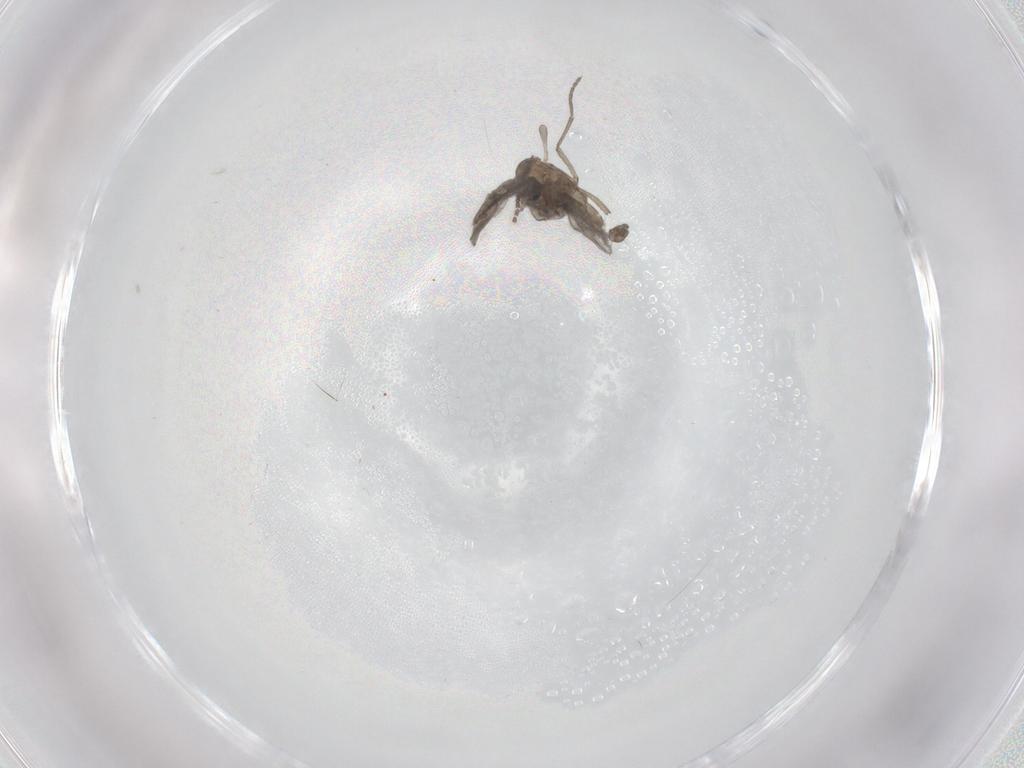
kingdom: Animalia
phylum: Arthropoda
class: Insecta
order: Diptera
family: Sciaridae
